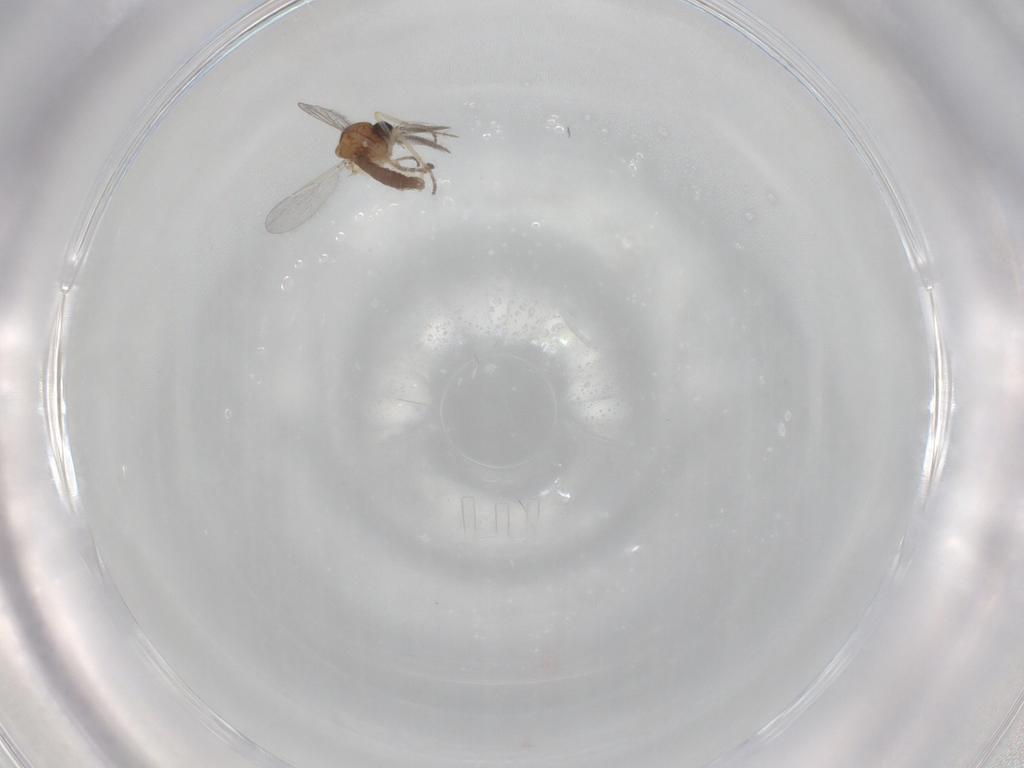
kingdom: Animalia
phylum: Arthropoda
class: Insecta
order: Diptera
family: Ceratopogonidae
